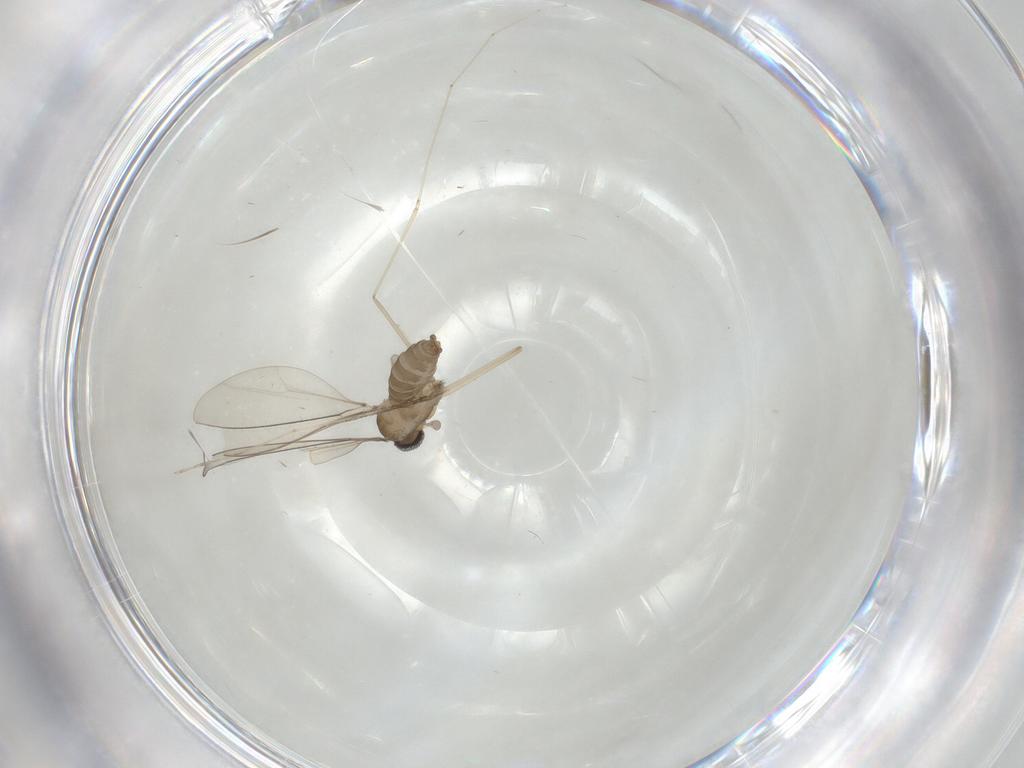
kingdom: Animalia
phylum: Arthropoda
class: Insecta
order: Diptera
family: Cecidomyiidae
